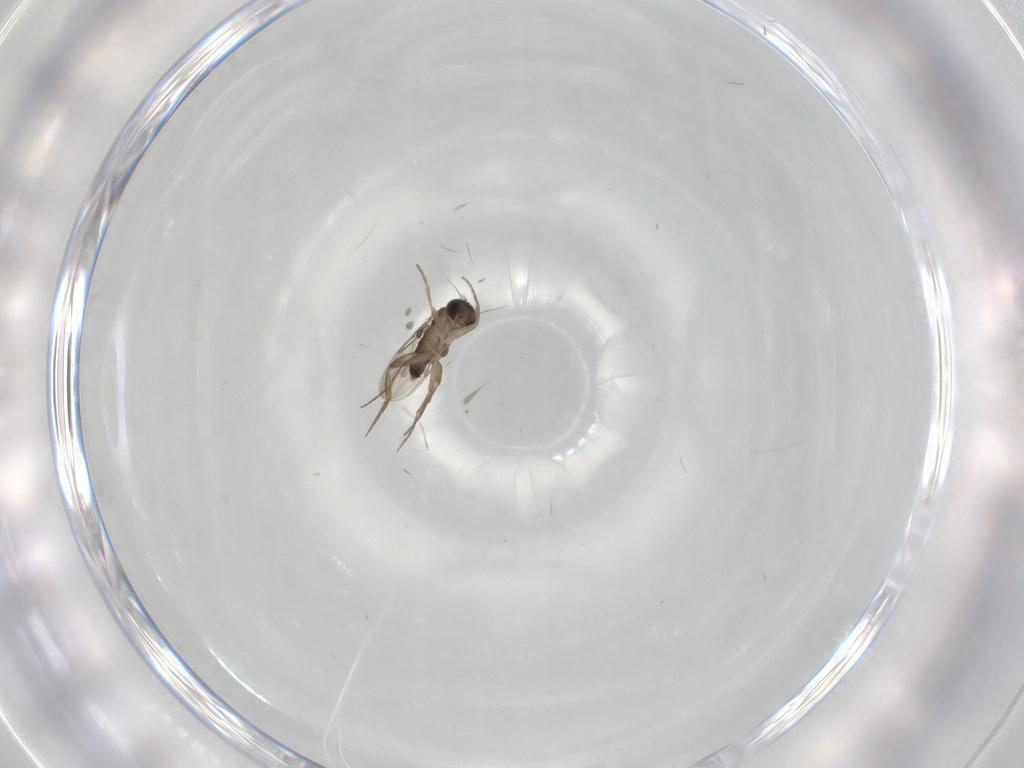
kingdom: Animalia
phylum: Arthropoda
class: Insecta
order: Diptera
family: Phoridae
